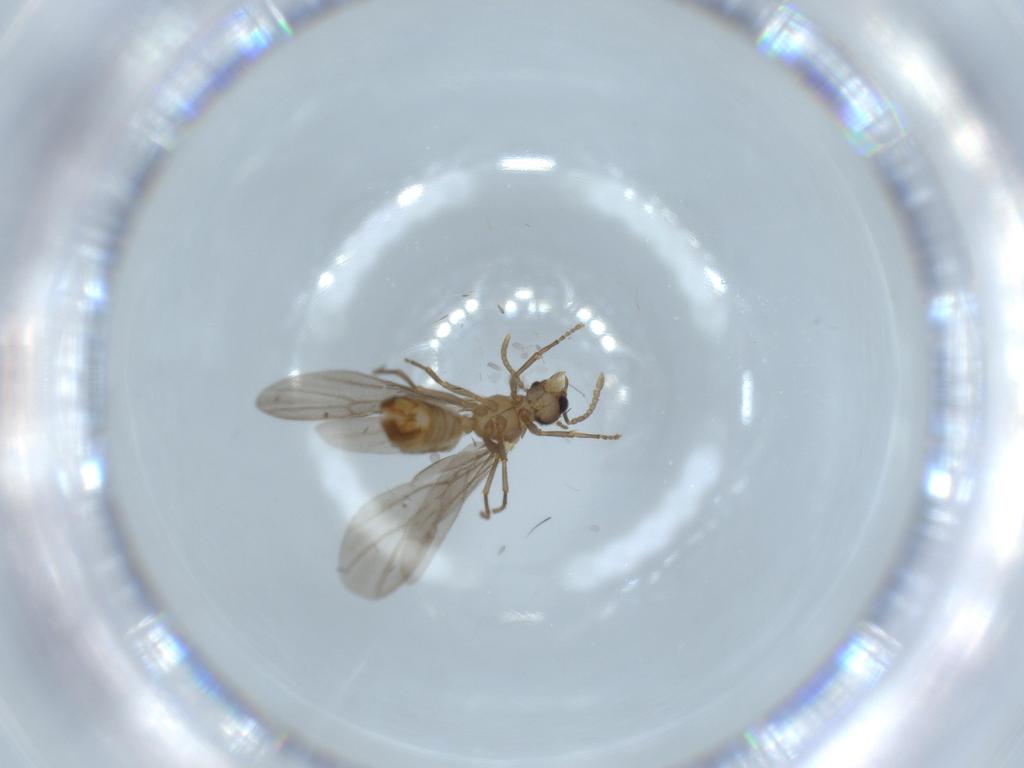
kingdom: Animalia
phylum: Arthropoda
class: Insecta
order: Hymenoptera
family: Formicidae
